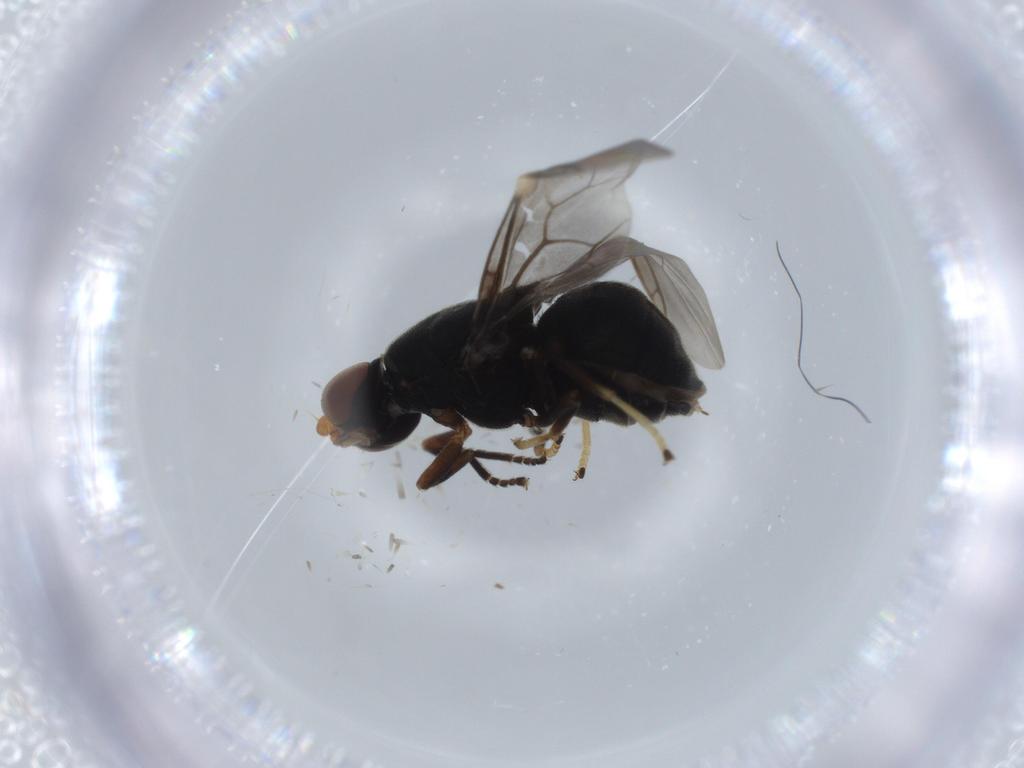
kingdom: Animalia
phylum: Arthropoda
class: Insecta
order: Diptera
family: Stratiomyidae
